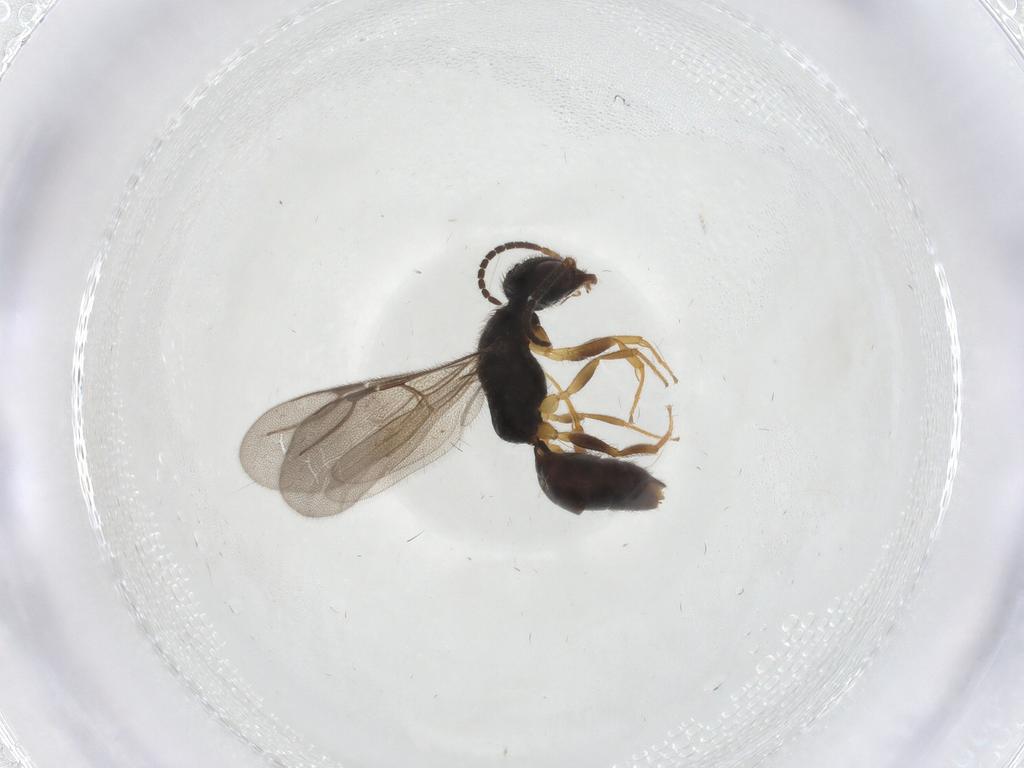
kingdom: Animalia
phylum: Arthropoda
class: Insecta
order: Hymenoptera
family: Bethylidae
